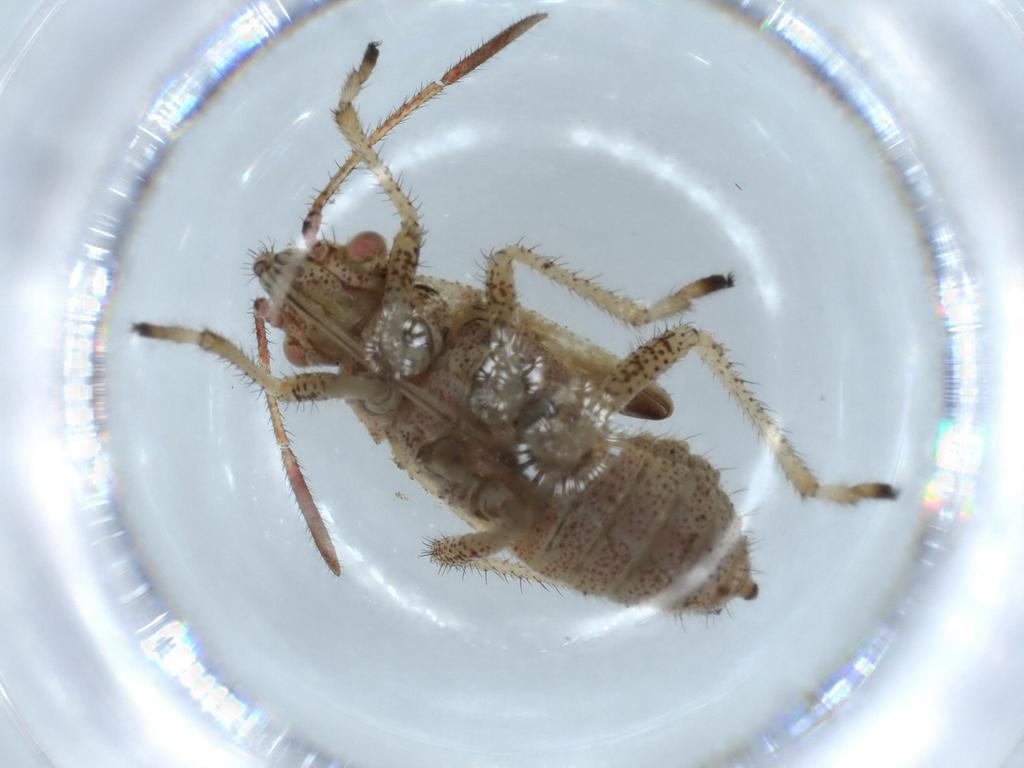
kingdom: Animalia
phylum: Arthropoda
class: Insecta
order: Hemiptera
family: Rhopalidae
